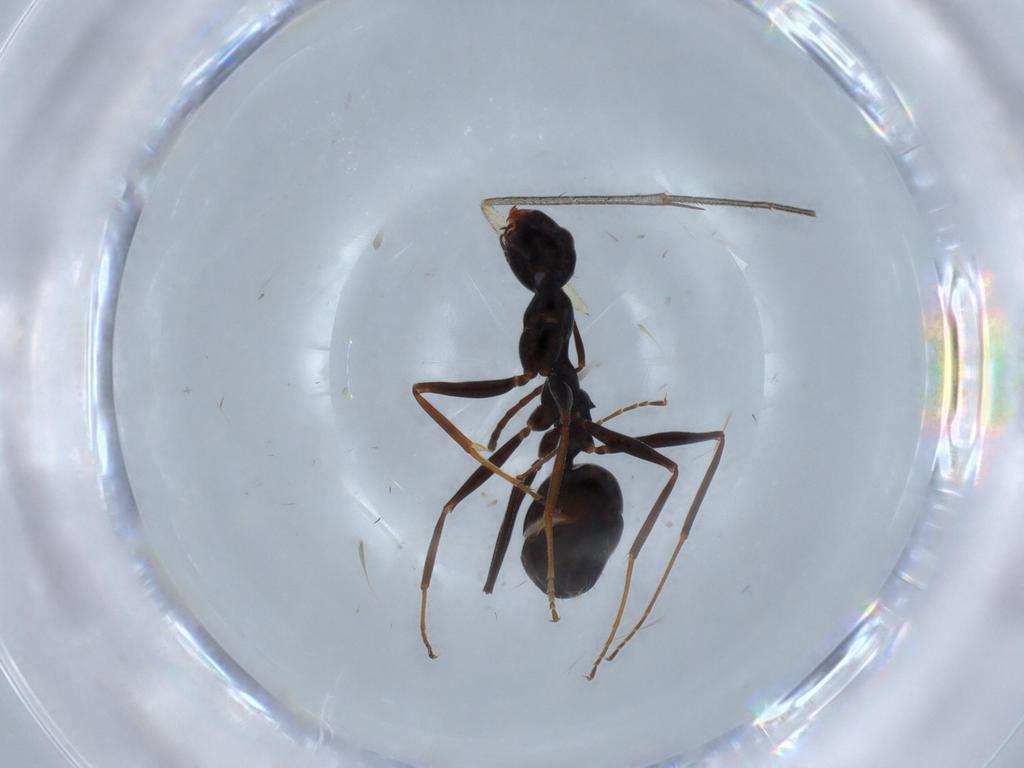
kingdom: Animalia
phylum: Arthropoda
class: Insecta
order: Hymenoptera
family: Formicidae
